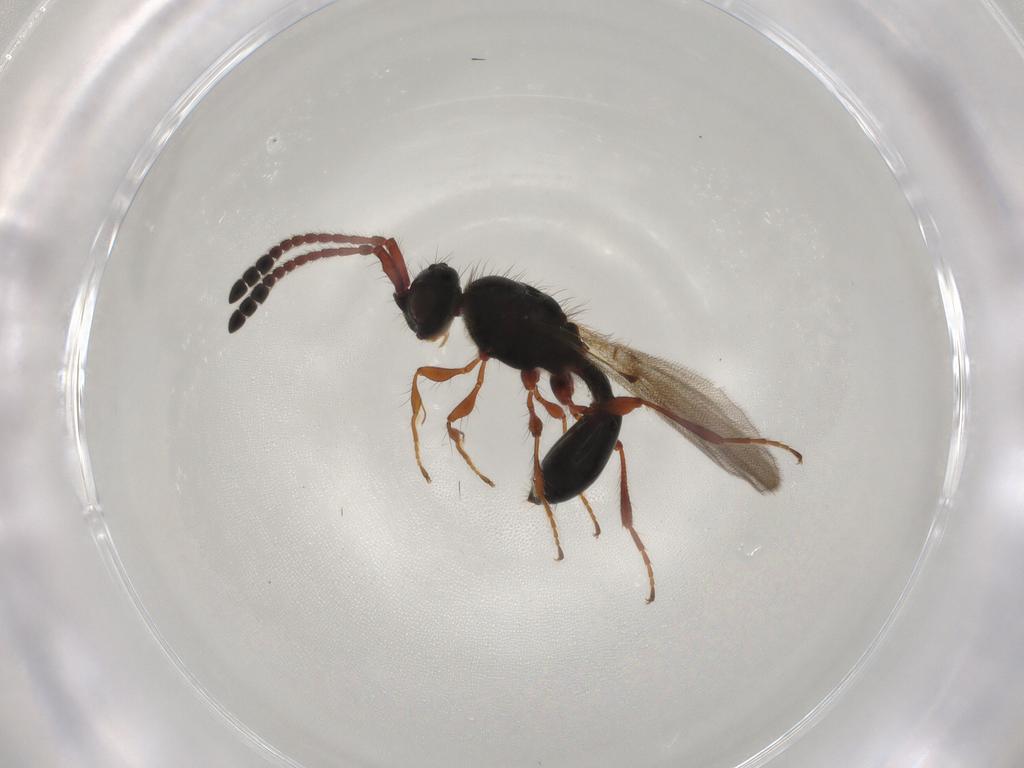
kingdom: Animalia
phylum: Arthropoda
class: Insecta
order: Hymenoptera
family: Diapriidae
